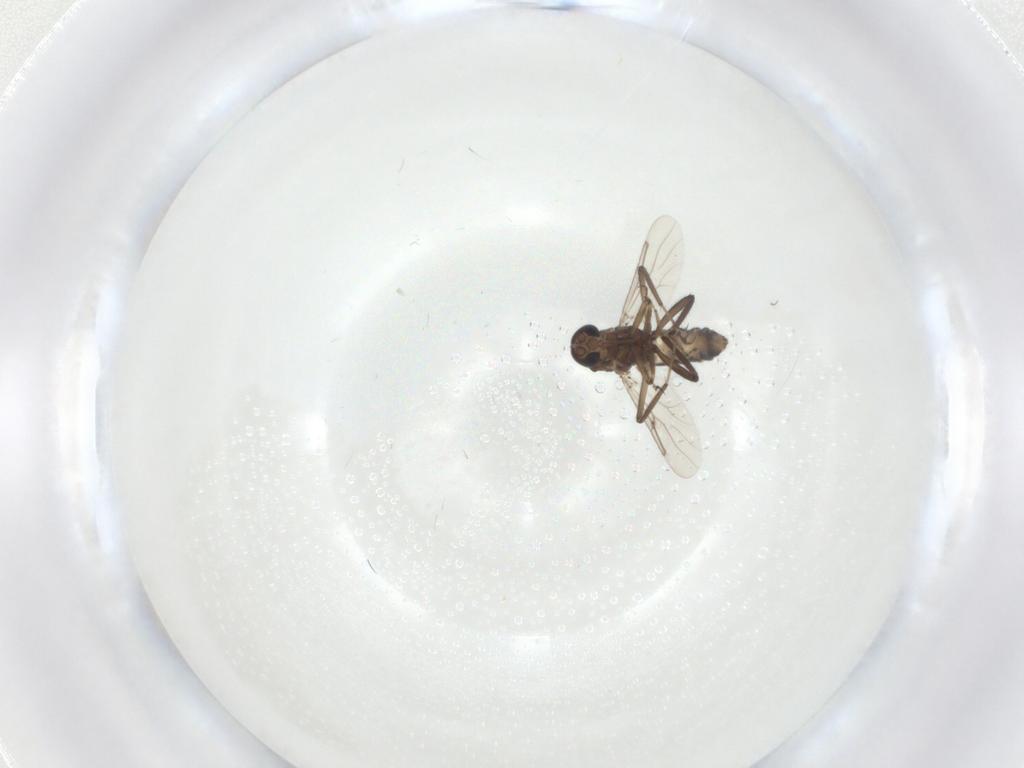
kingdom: Animalia
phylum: Arthropoda
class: Insecta
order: Diptera
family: Ceratopogonidae
